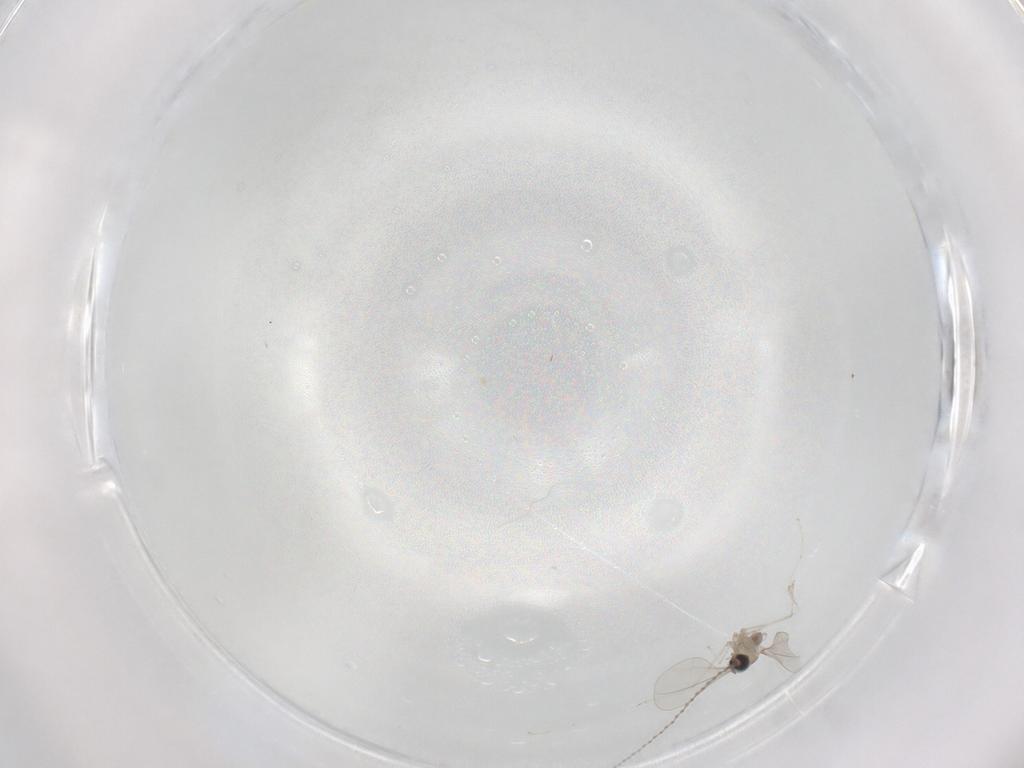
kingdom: Animalia
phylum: Arthropoda
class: Insecta
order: Diptera
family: Cecidomyiidae
